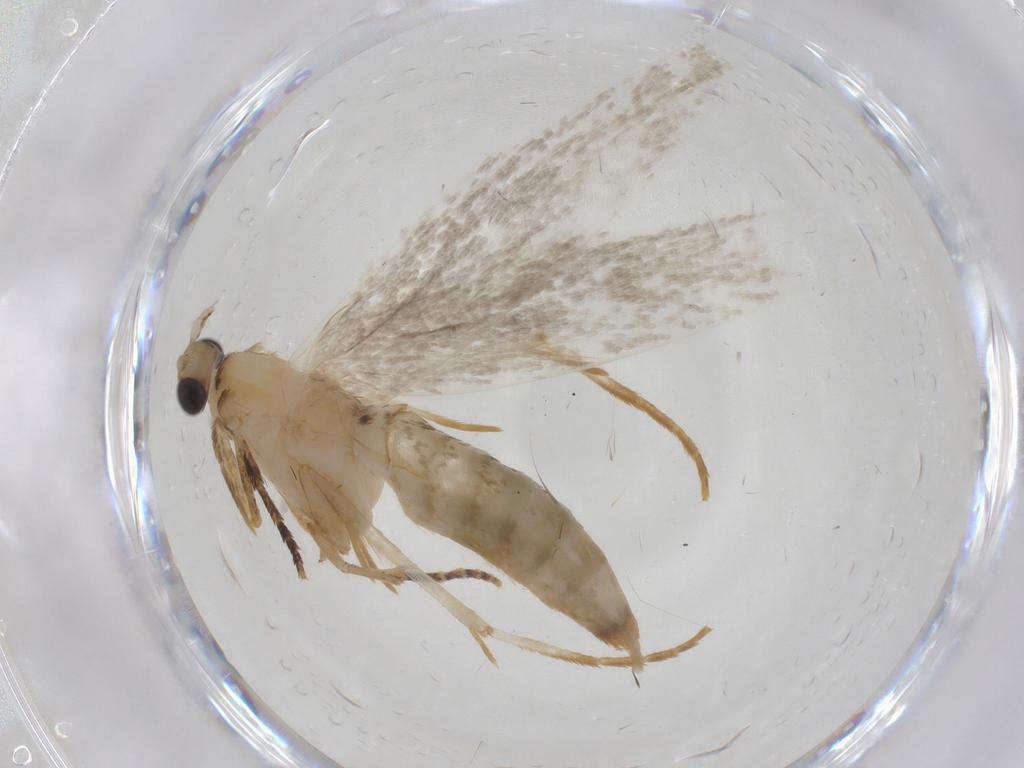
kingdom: Animalia
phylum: Arthropoda
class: Insecta
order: Lepidoptera
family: Tineidae
